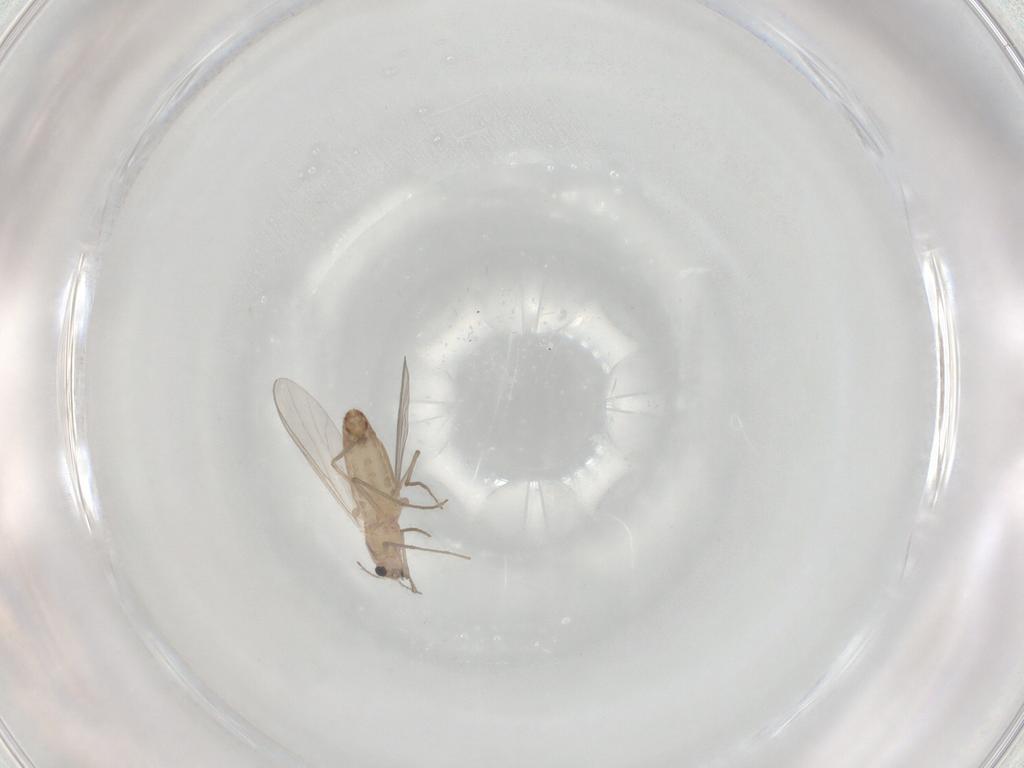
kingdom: Animalia
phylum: Arthropoda
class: Insecta
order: Diptera
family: Chironomidae
